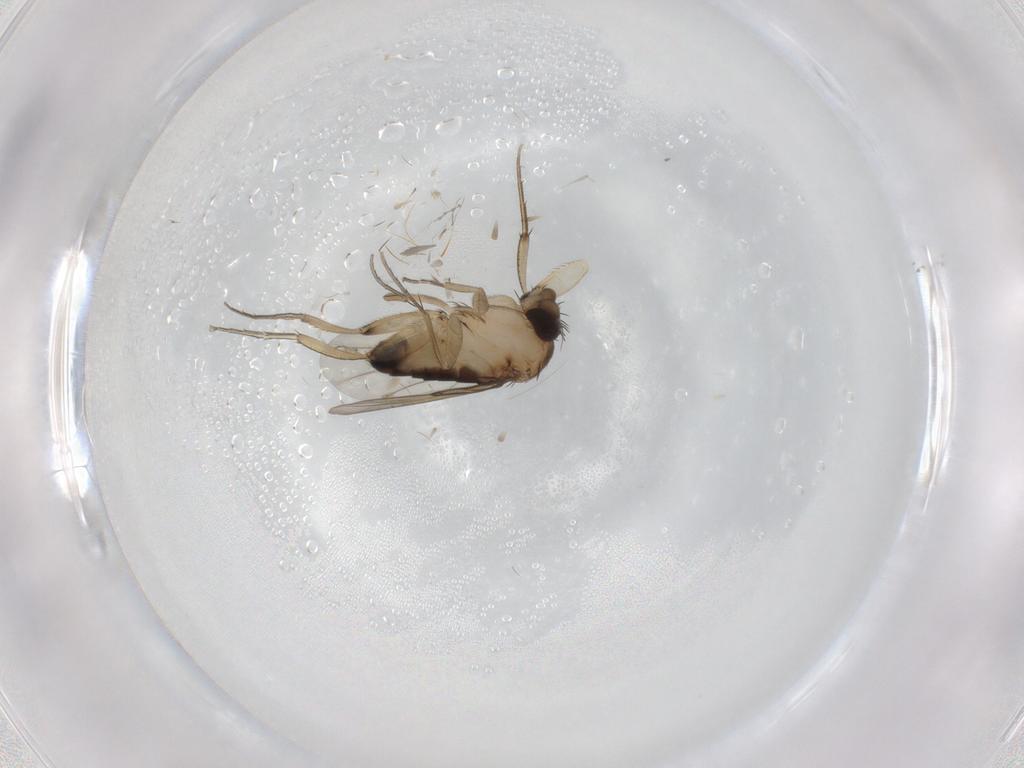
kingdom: Animalia
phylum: Arthropoda
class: Insecta
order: Diptera
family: Phoridae
